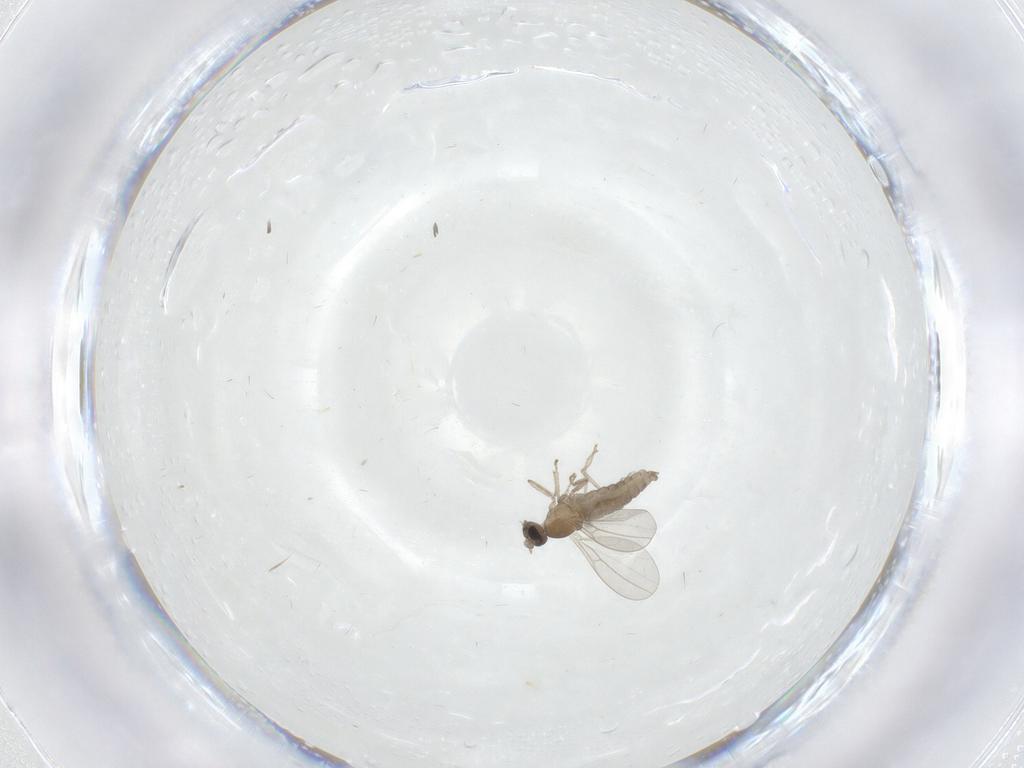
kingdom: Animalia
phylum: Arthropoda
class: Insecta
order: Diptera
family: Cecidomyiidae
